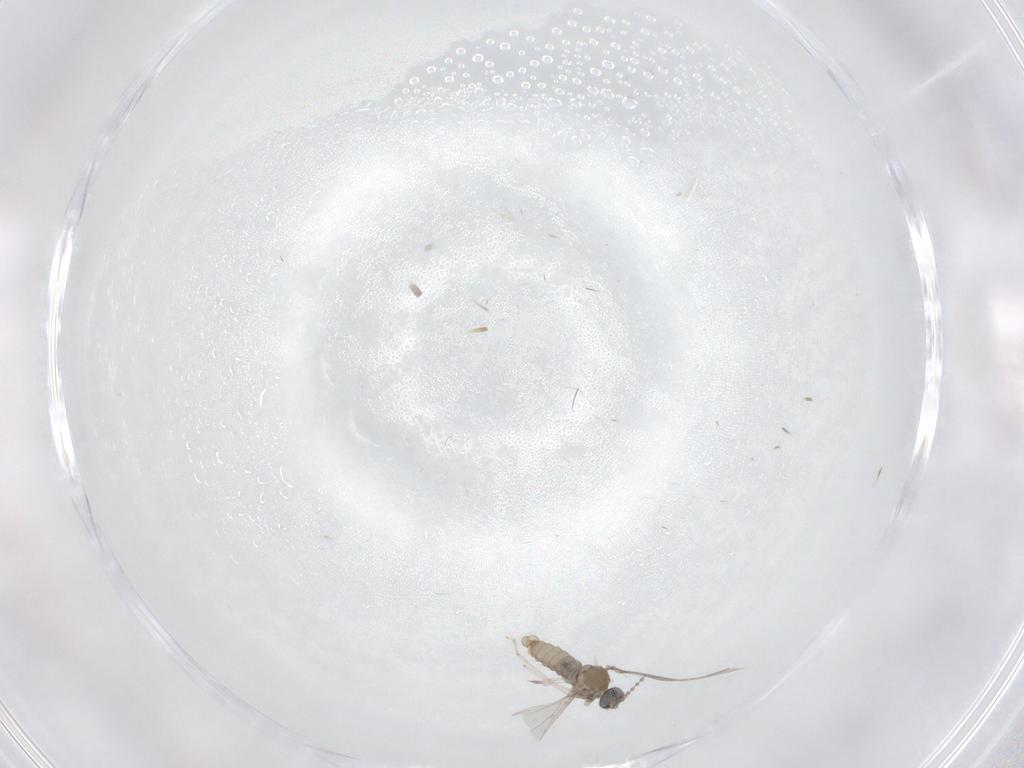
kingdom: Animalia
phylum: Arthropoda
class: Insecta
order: Diptera
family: Cecidomyiidae
